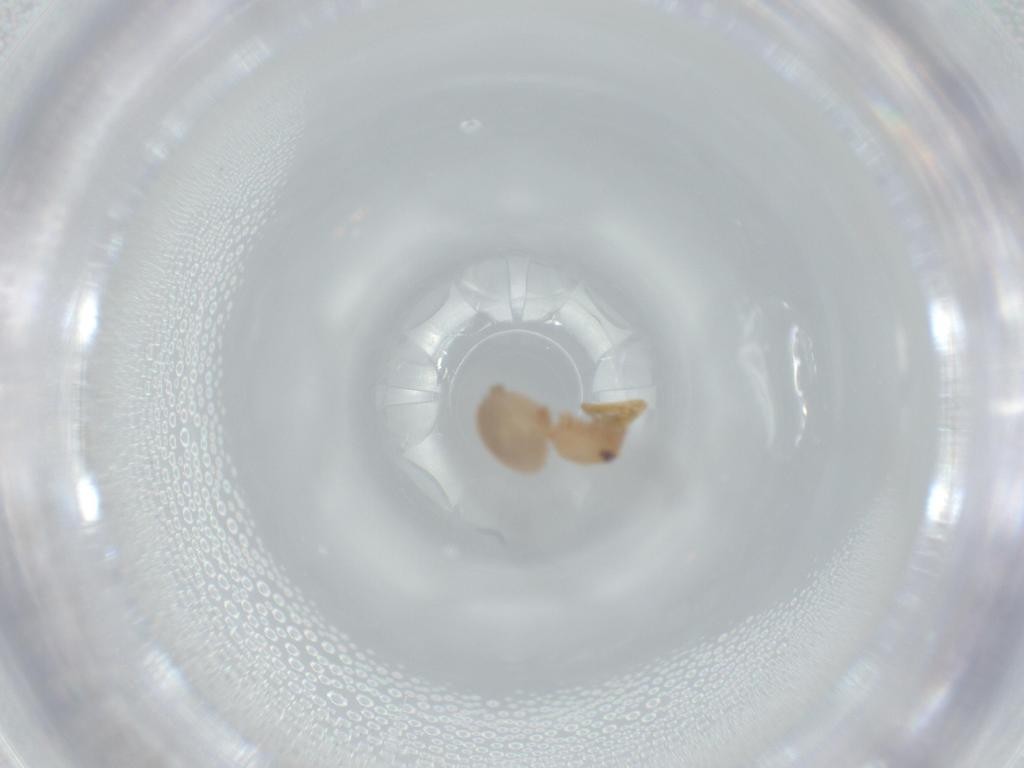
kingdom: Animalia
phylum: Arthropoda
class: Arachnida
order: Araneae
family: Oonopidae
